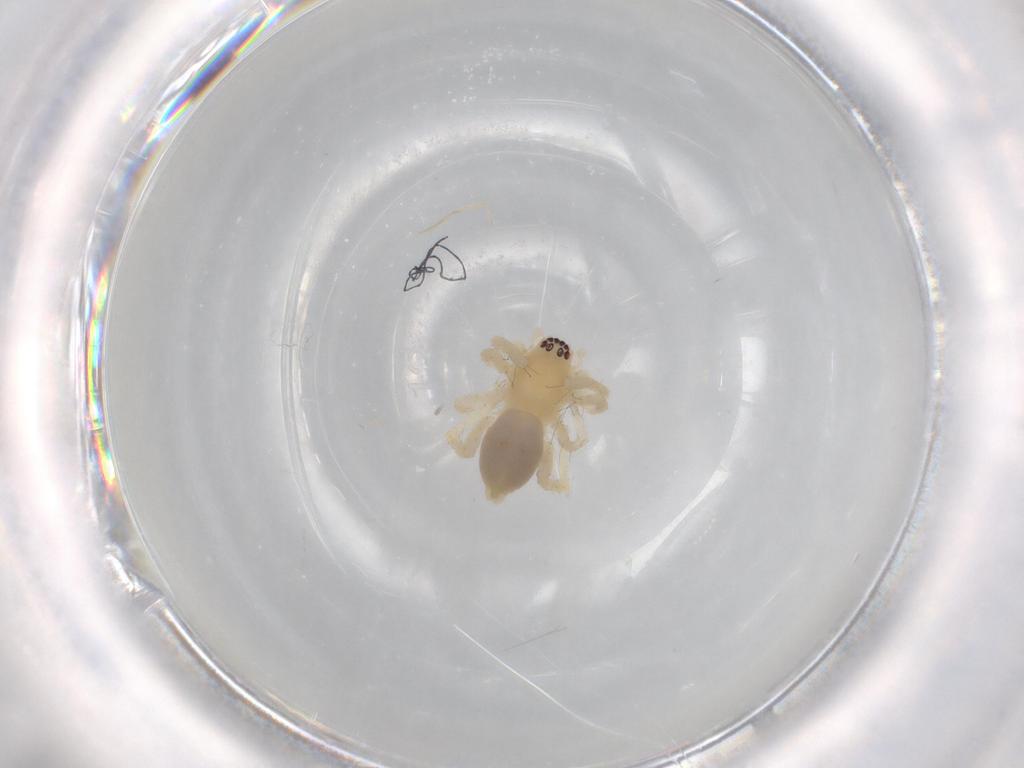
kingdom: Animalia
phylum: Arthropoda
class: Arachnida
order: Araneae
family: Anyphaenidae
